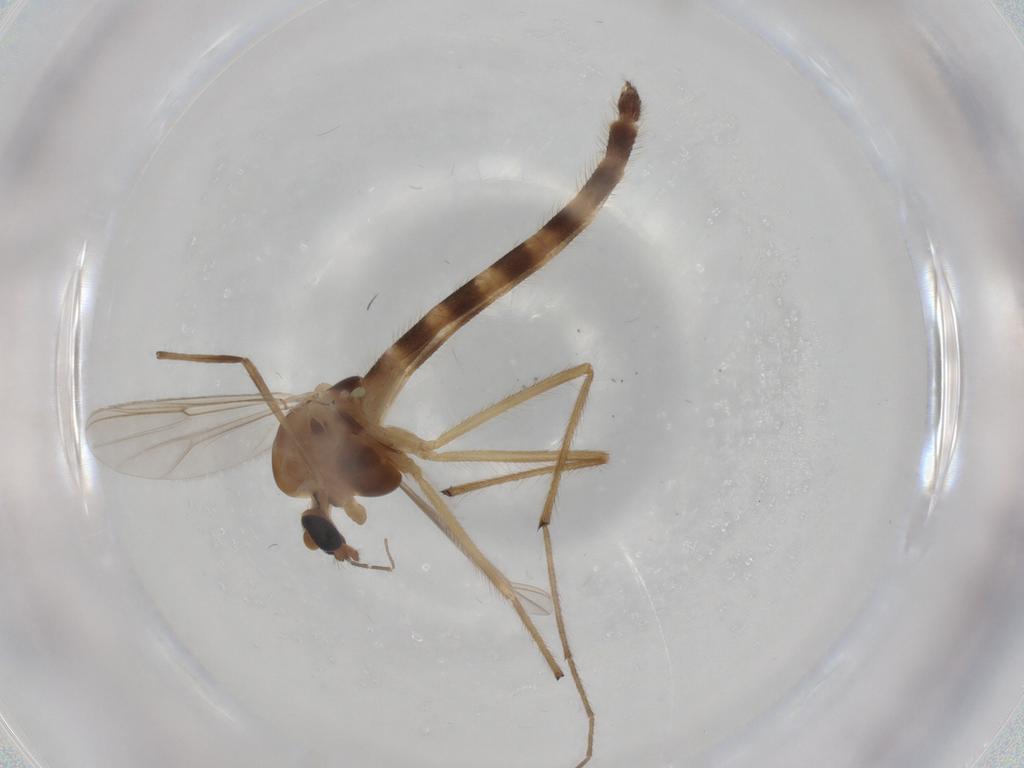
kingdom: Animalia
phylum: Arthropoda
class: Insecta
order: Diptera
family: Chironomidae
